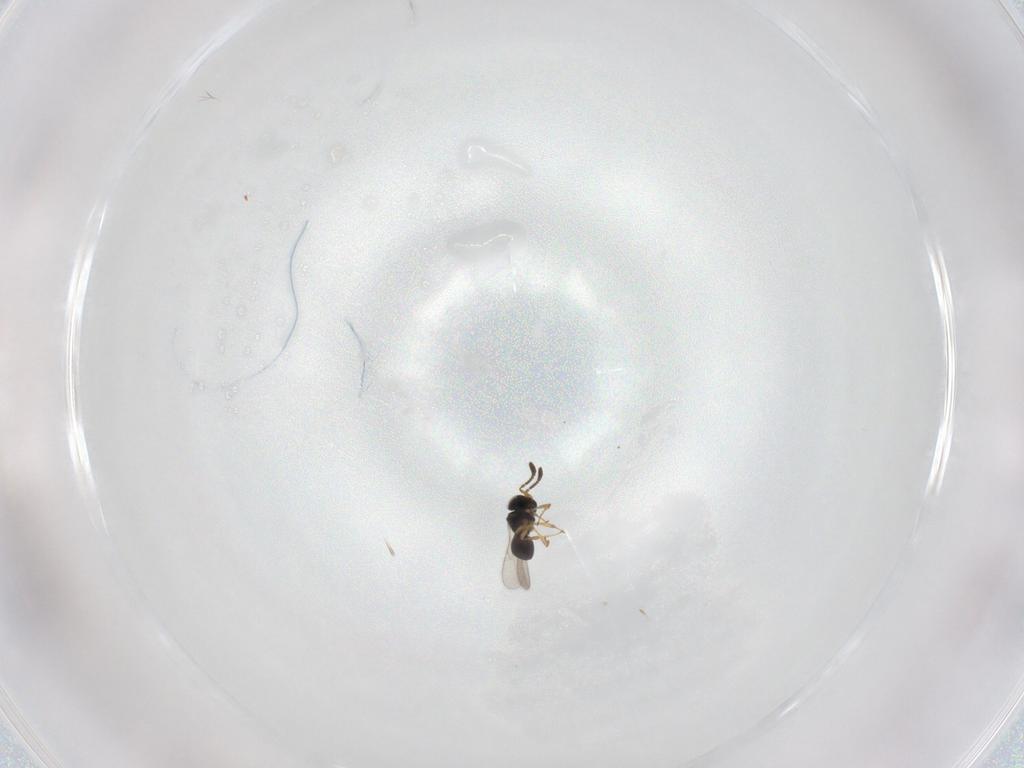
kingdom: Animalia
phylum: Arthropoda
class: Insecta
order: Hymenoptera
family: Scelionidae
